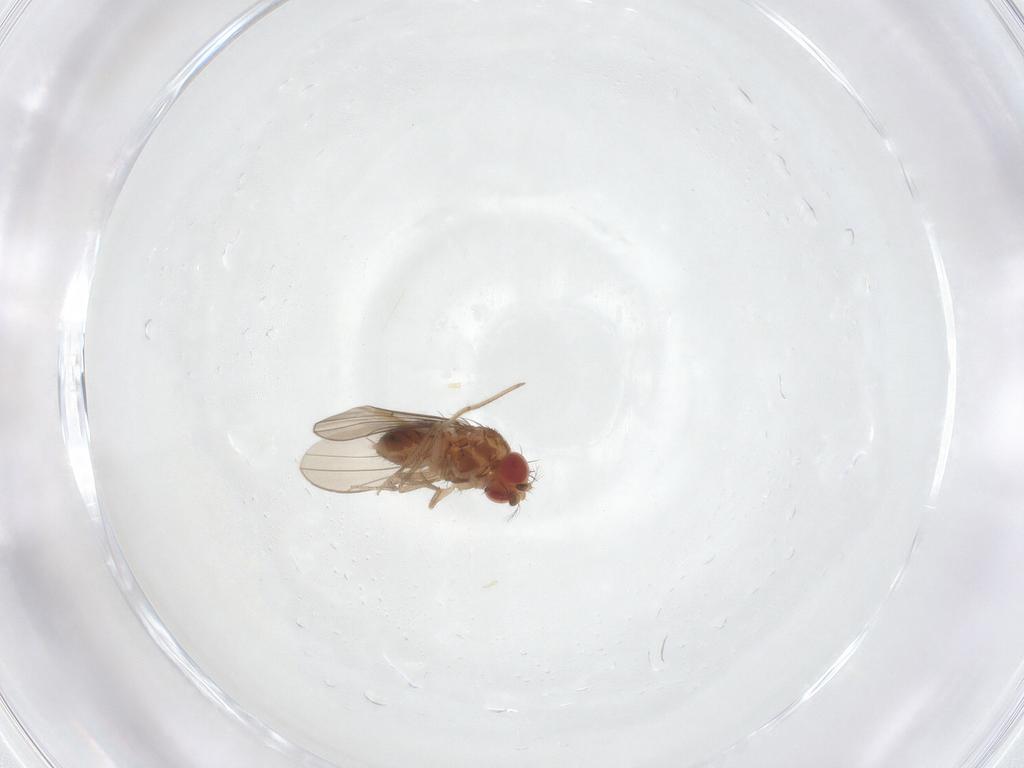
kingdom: Animalia
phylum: Arthropoda
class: Insecta
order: Diptera
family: Drosophilidae
